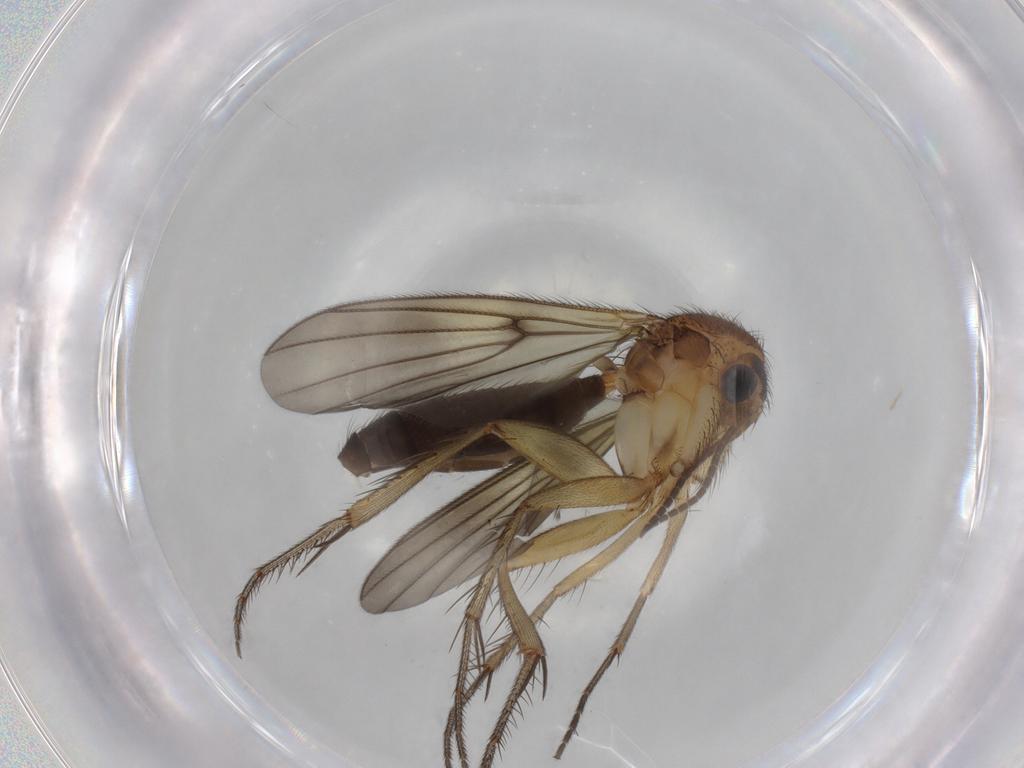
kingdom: Animalia
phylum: Arthropoda
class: Insecta
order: Diptera
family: Mycetophilidae
